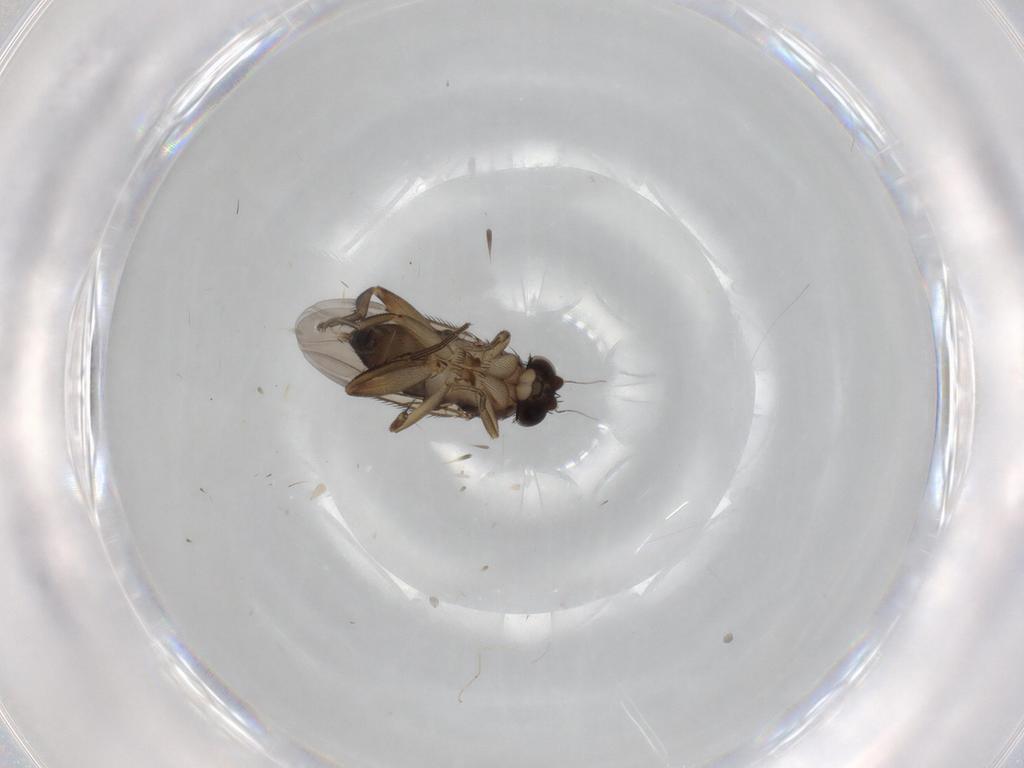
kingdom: Animalia
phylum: Arthropoda
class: Insecta
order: Diptera
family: Phoridae
